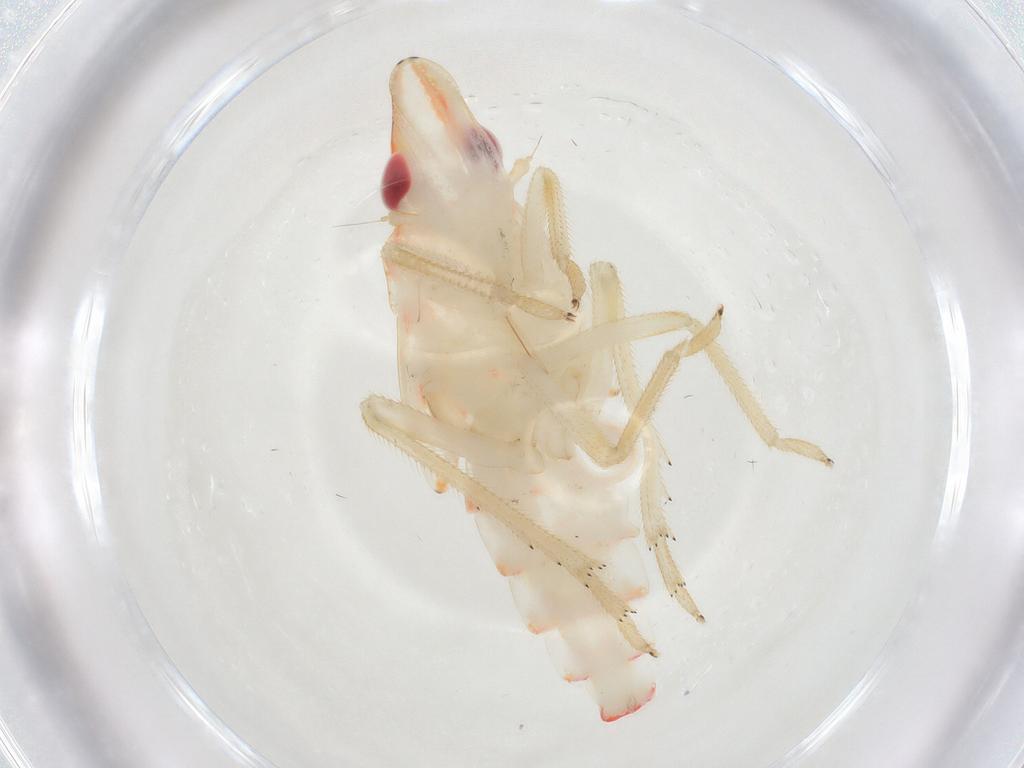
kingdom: Animalia
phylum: Arthropoda
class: Insecta
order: Hemiptera
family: Tropiduchidae
